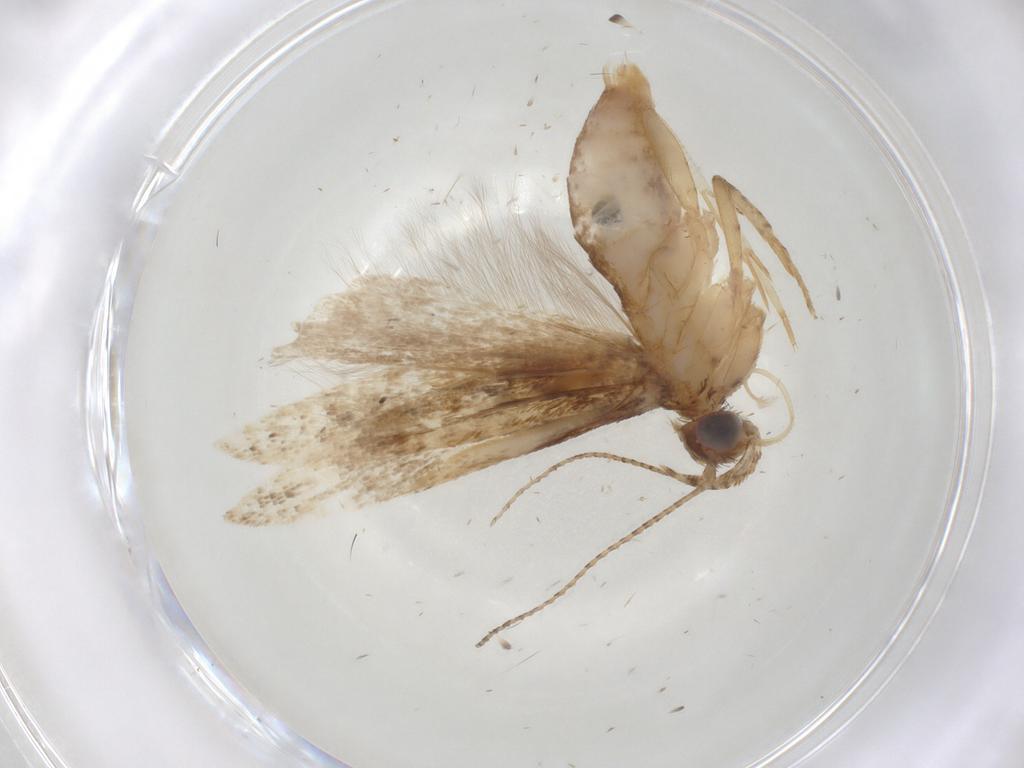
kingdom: Animalia
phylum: Arthropoda
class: Insecta
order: Lepidoptera
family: Gelechiidae
